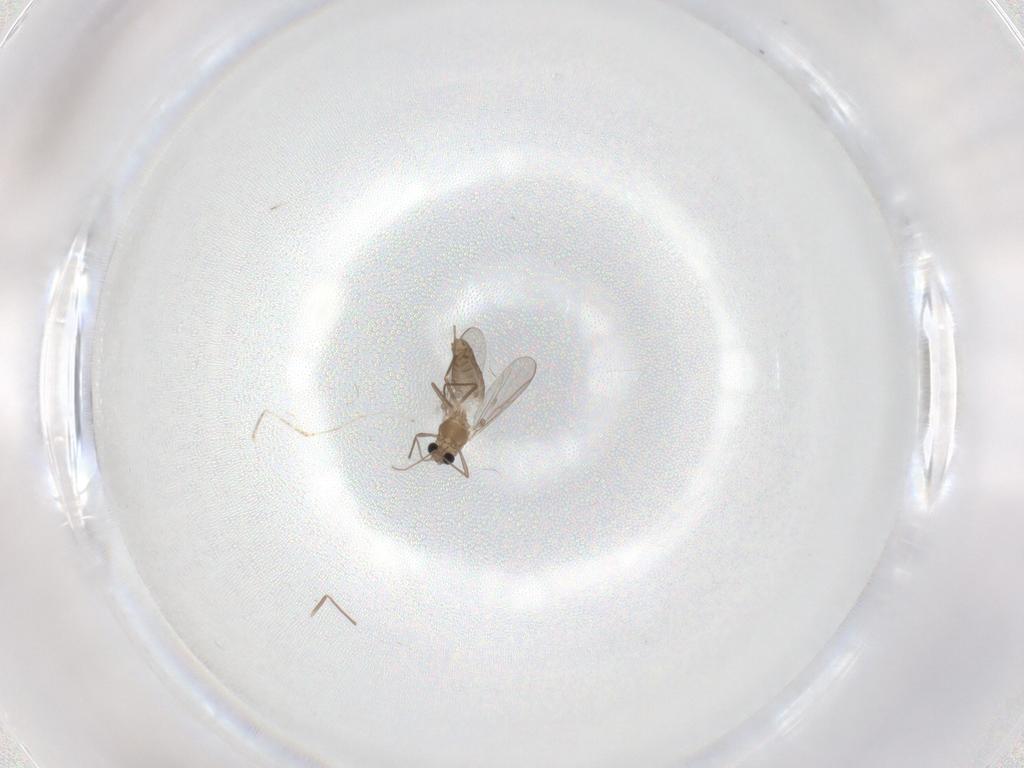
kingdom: Animalia
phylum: Arthropoda
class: Insecta
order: Diptera
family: Chironomidae
